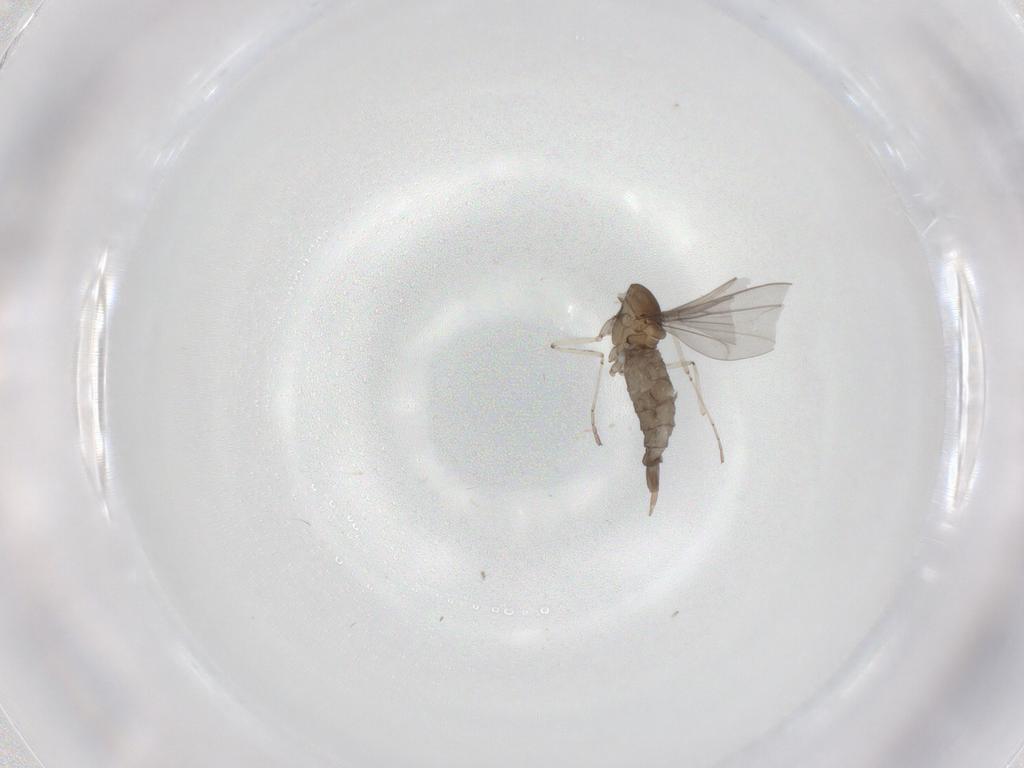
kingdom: Animalia
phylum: Arthropoda
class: Insecta
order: Diptera
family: Cecidomyiidae
